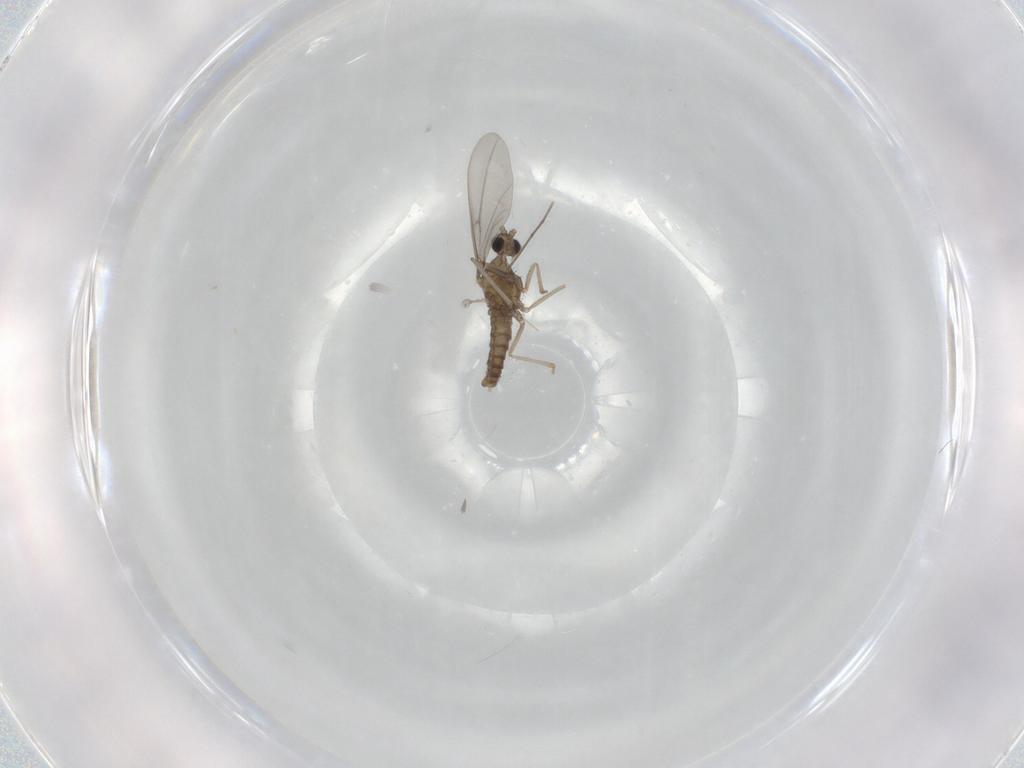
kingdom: Animalia
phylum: Arthropoda
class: Insecta
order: Diptera
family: Cecidomyiidae
